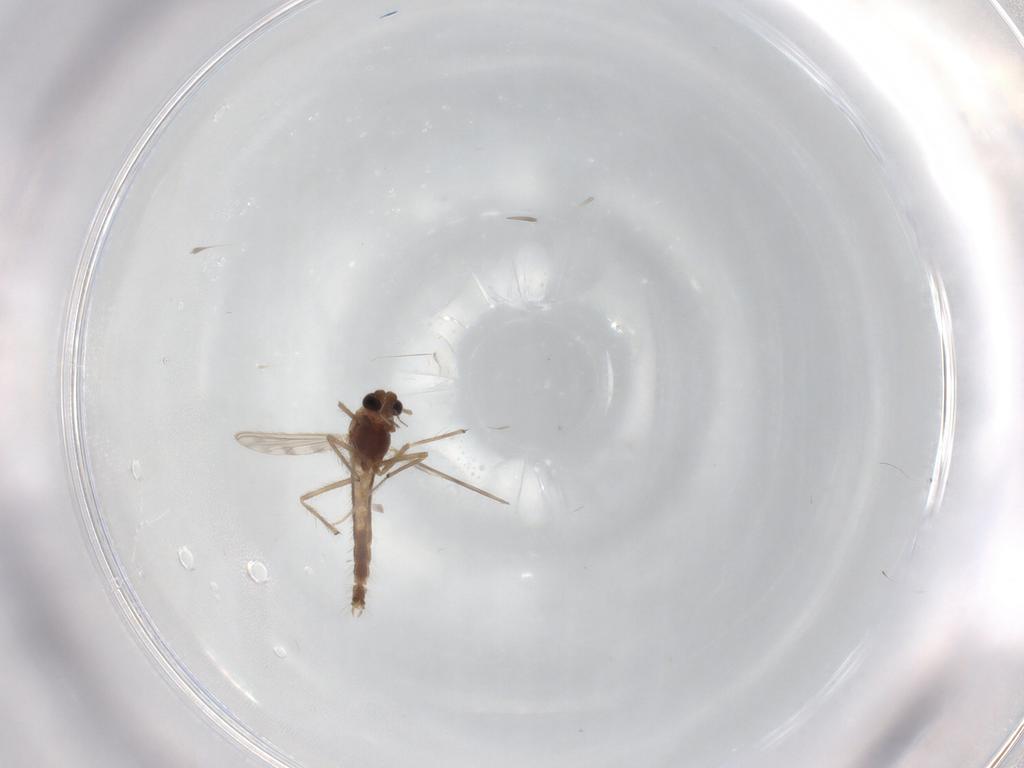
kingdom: Animalia
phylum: Arthropoda
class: Insecta
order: Diptera
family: Chironomidae
